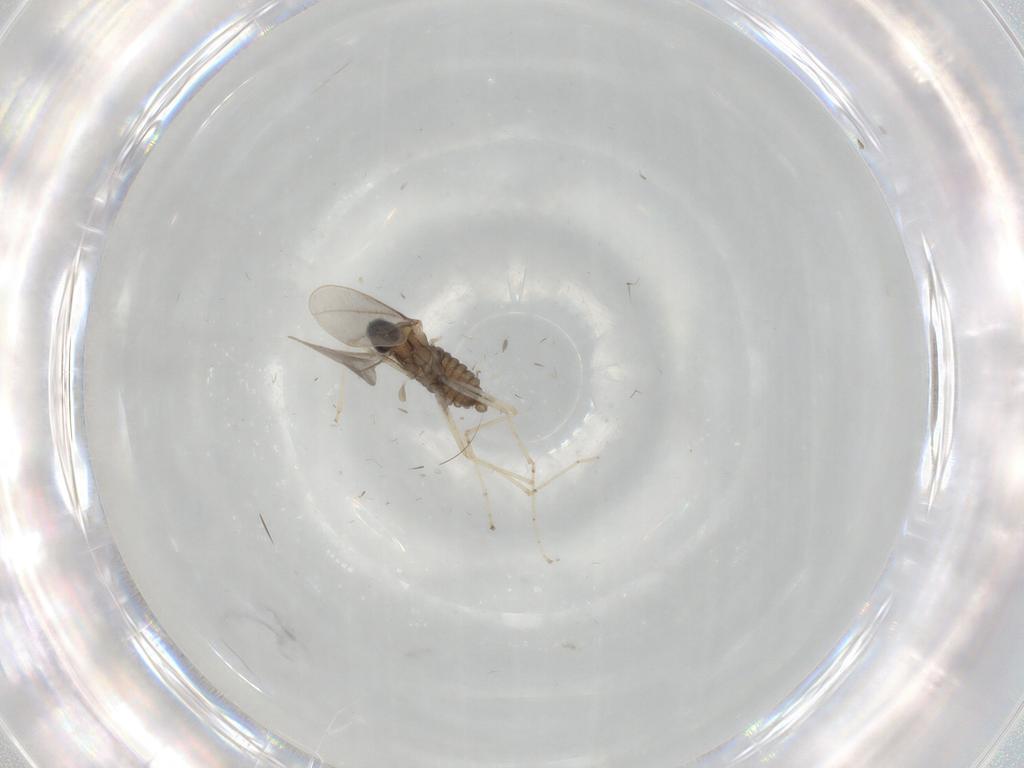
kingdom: Animalia
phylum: Arthropoda
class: Insecta
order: Diptera
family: Cecidomyiidae
